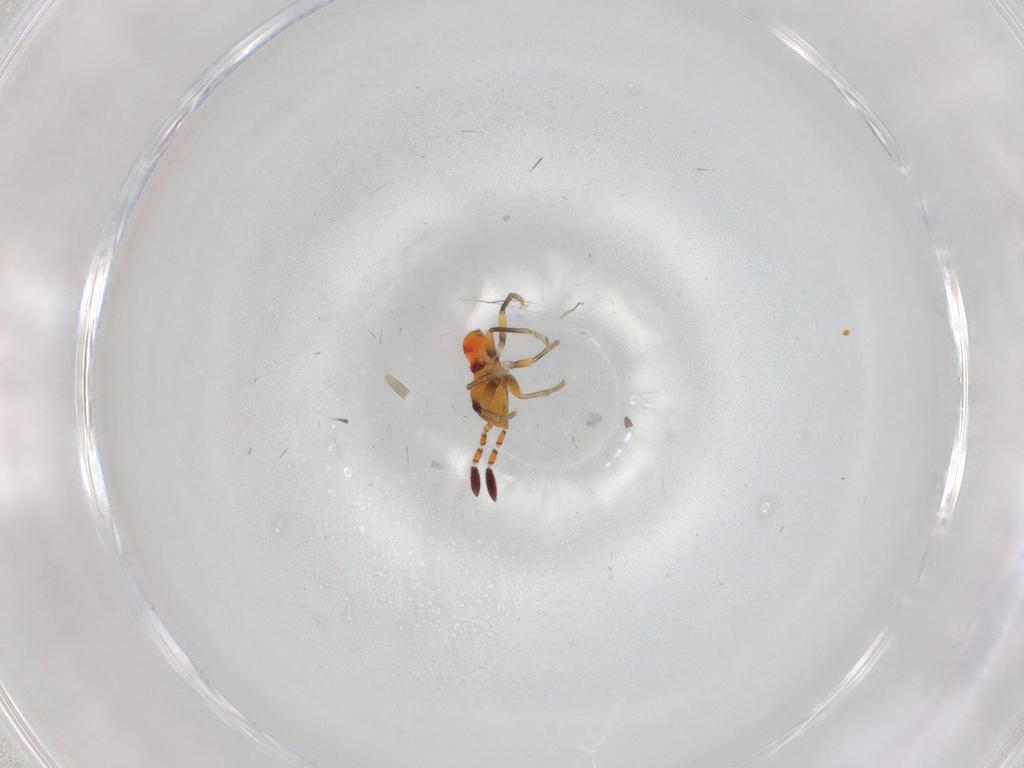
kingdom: Animalia
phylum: Arthropoda
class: Insecta
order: Hemiptera
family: Rhyparochromidae
